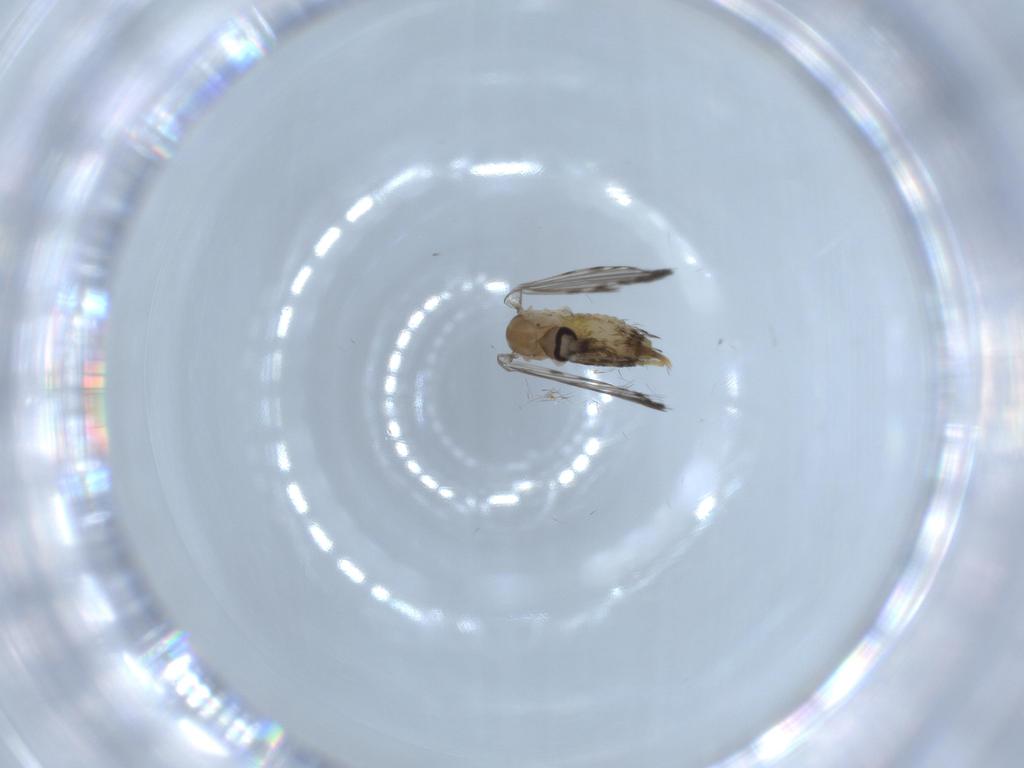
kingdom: Animalia
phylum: Arthropoda
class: Insecta
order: Diptera
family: Psychodidae
